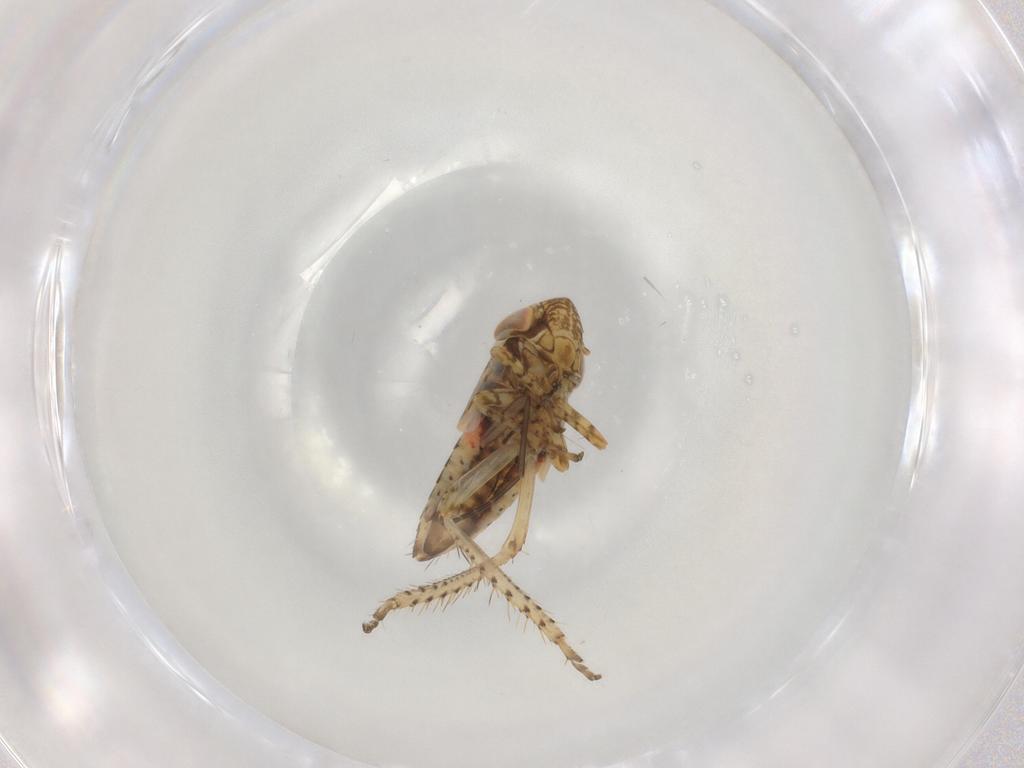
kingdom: Animalia
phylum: Arthropoda
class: Insecta
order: Hemiptera
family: Cicadellidae
